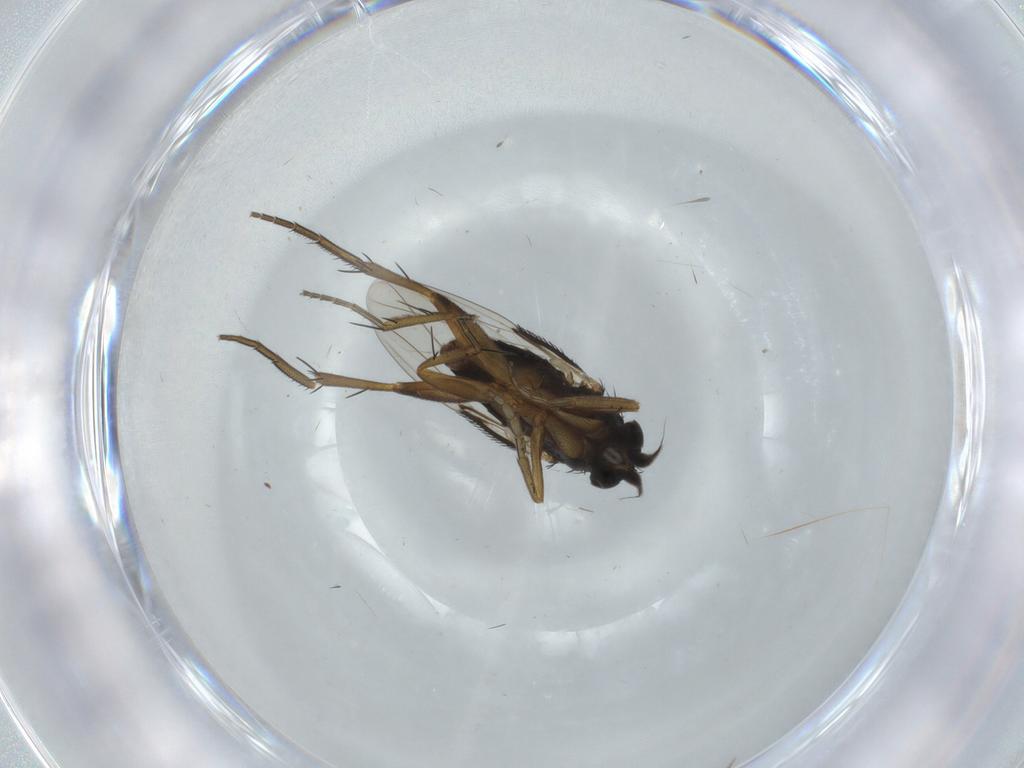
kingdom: Animalia
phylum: Arthropoda
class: Insecta
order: Diptera
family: Phoridae
